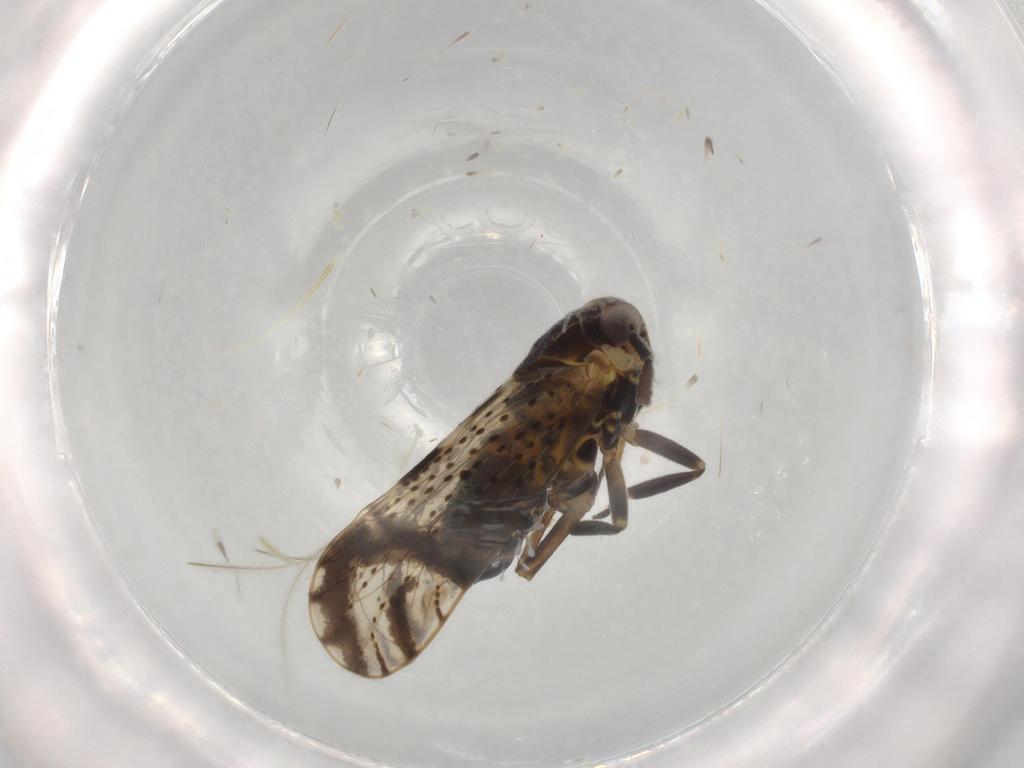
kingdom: Animalia
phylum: Arthropoda
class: Insecta
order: Hemiptera
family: Delphacidae
